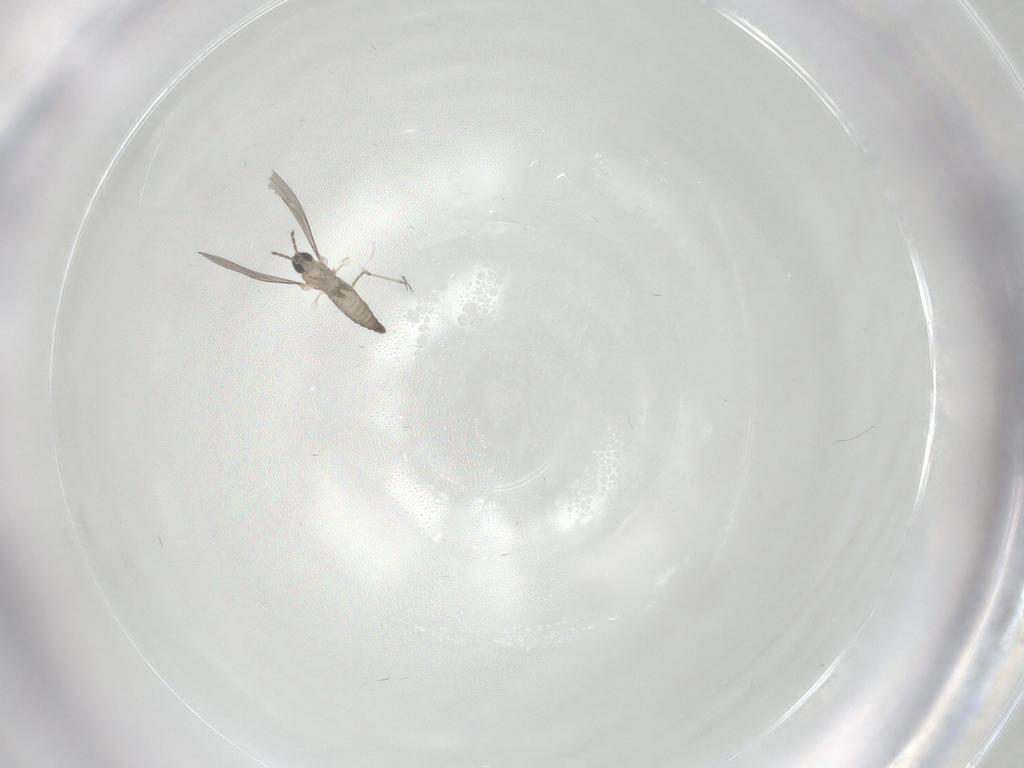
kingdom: Animalia
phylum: Arthropoda
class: Insecta
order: Diptera
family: Cecidomyiidae
